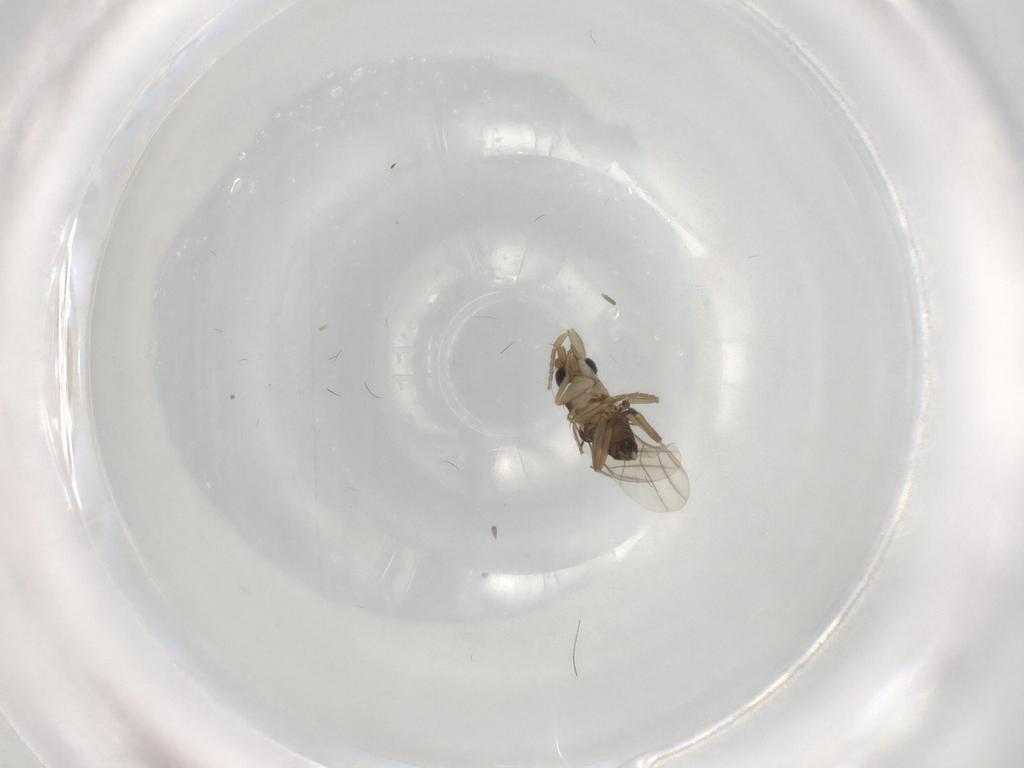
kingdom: Animalia
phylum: Arthropoda
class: Insecta
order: Diptera
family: Phoridae
